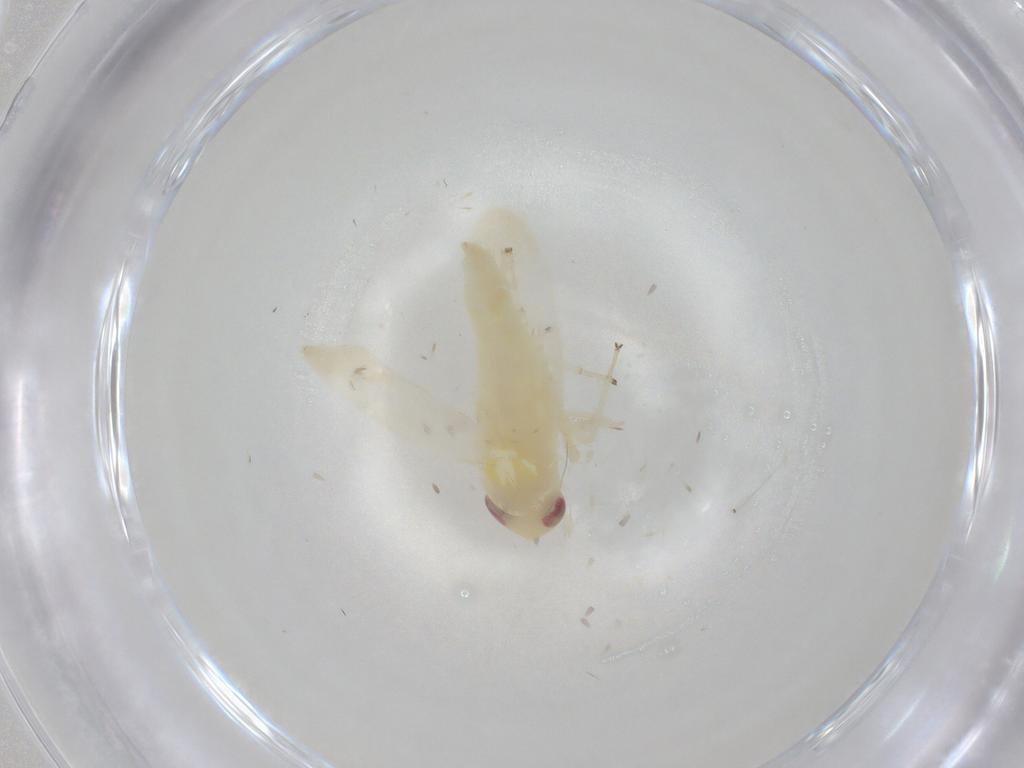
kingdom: Animalia
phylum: Arthropoda
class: Insecta
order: Hemiptera
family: Cicadellidae
